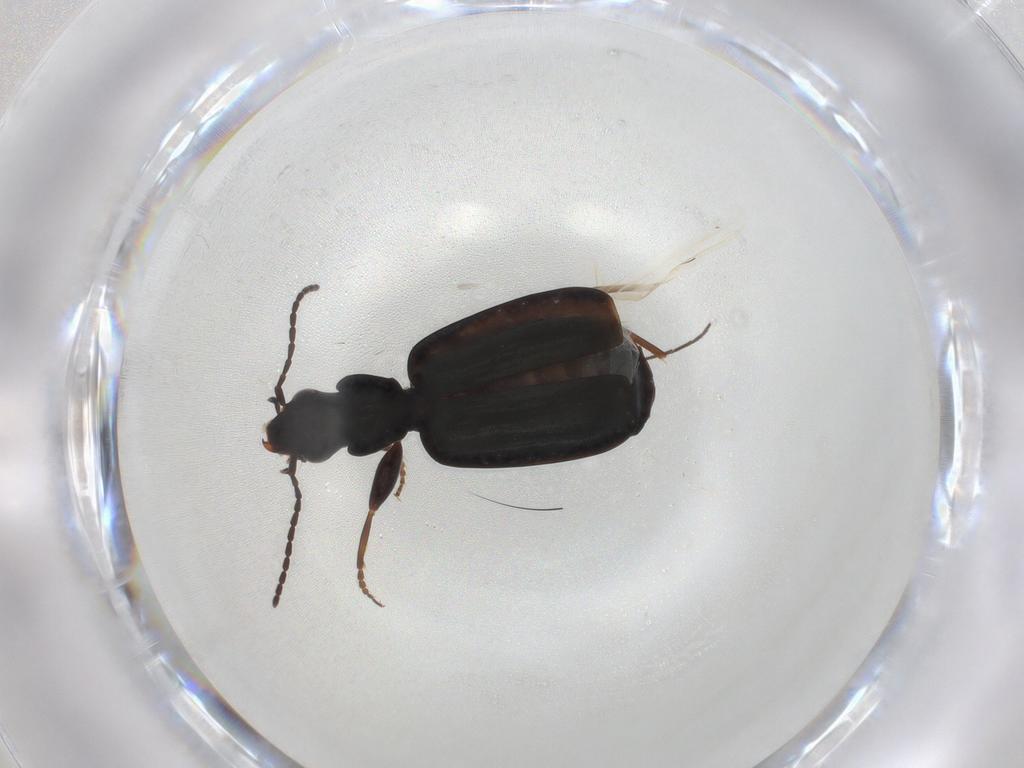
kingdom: Animalia
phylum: Arthropoda
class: Insecta
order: Coleoptera
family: Carabidae
